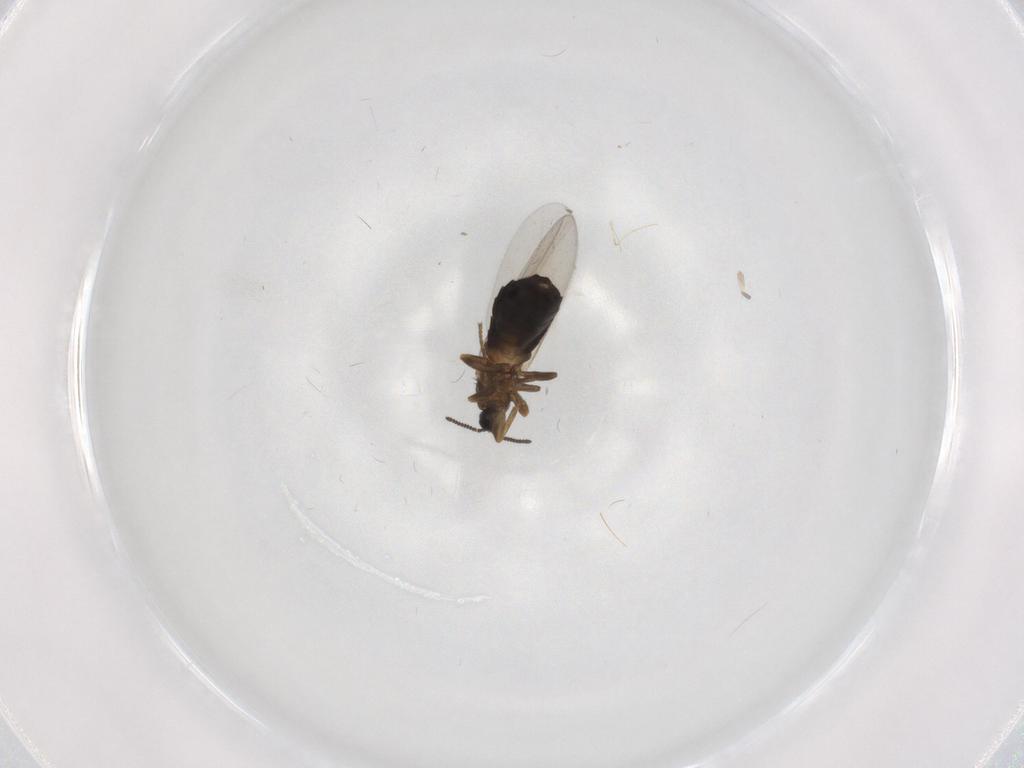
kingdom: Animalia
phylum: Arthropoda
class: Insecta
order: Diptera
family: Scatopsidae
